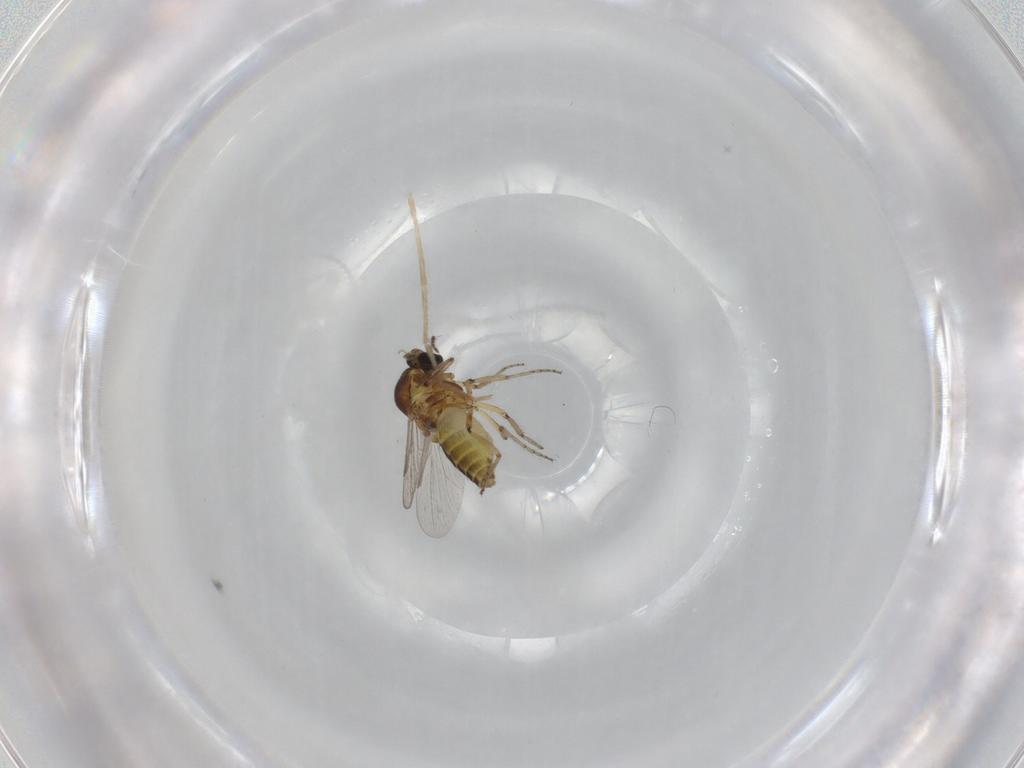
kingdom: Animalia
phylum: Arthropoda
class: Insecta
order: Diptera
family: Ceratopogonidae
